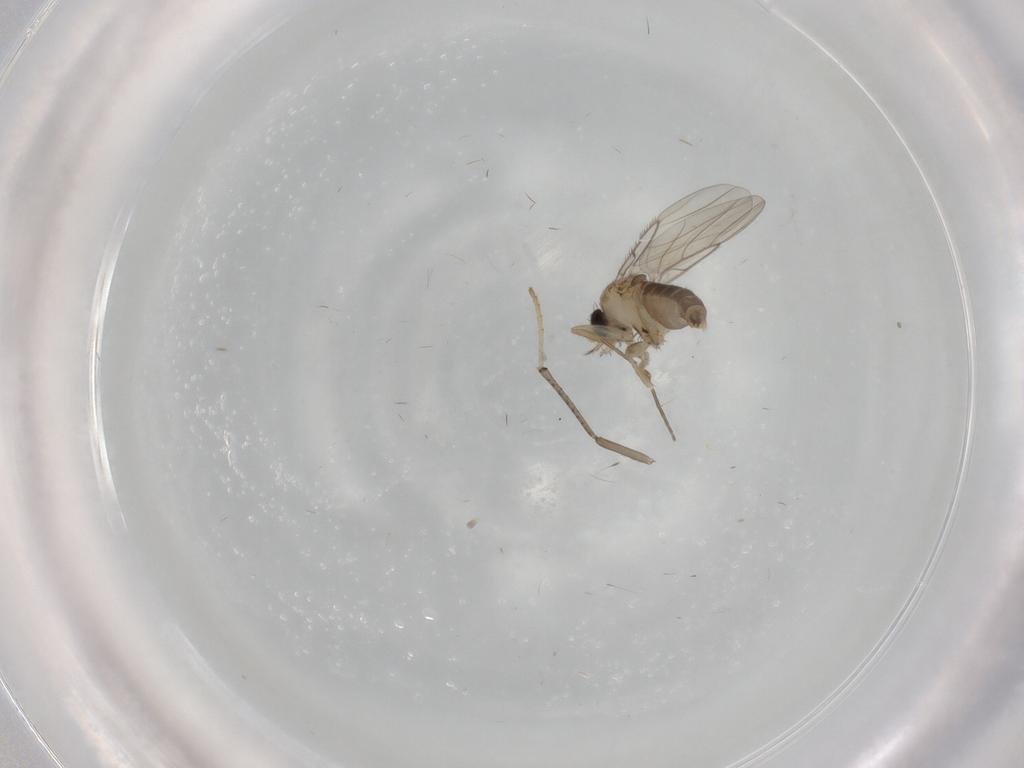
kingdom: Animalia
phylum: Arthropoda
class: Insecta
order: Diptera
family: Phoridae
